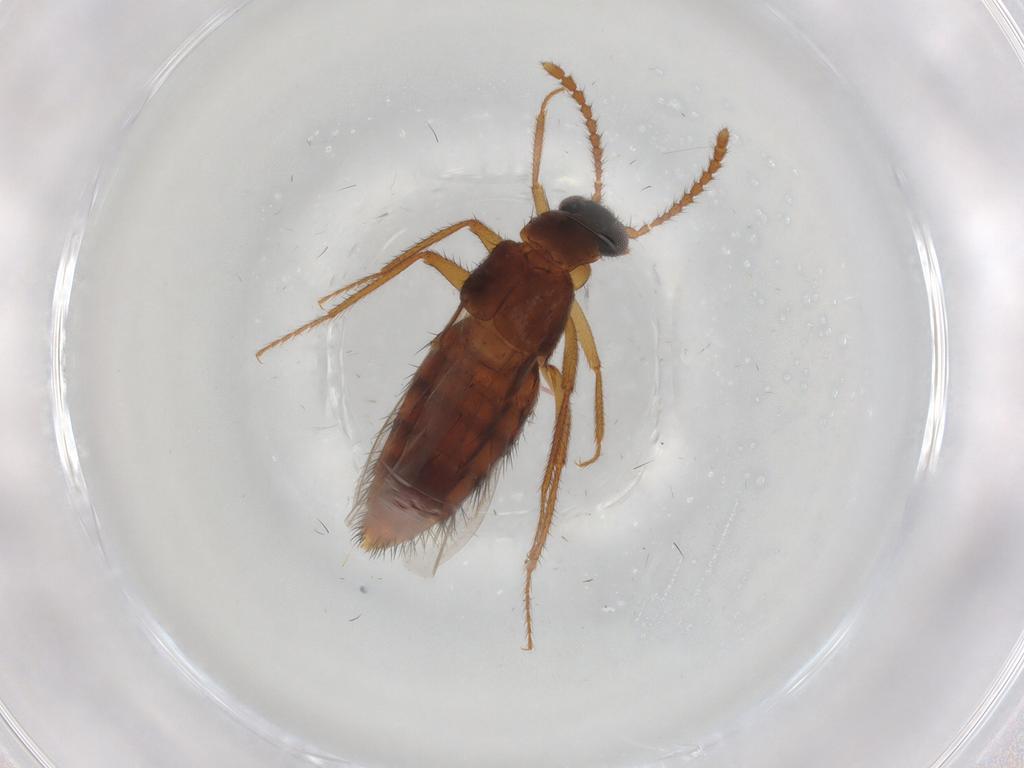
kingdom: Animalia
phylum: Arthropoda
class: Insecta
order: Coleoptera
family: Staphylinidae
